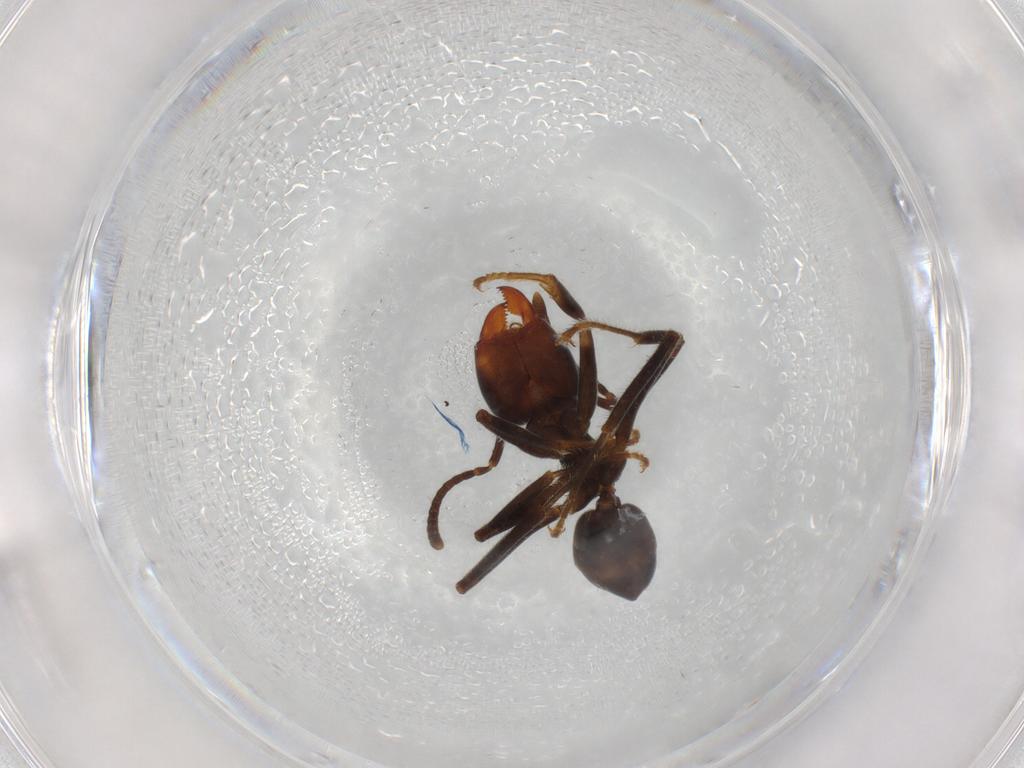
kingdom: Animalia
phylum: Arthropoda
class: Insecta
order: Hymenoptera
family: Formicidae
